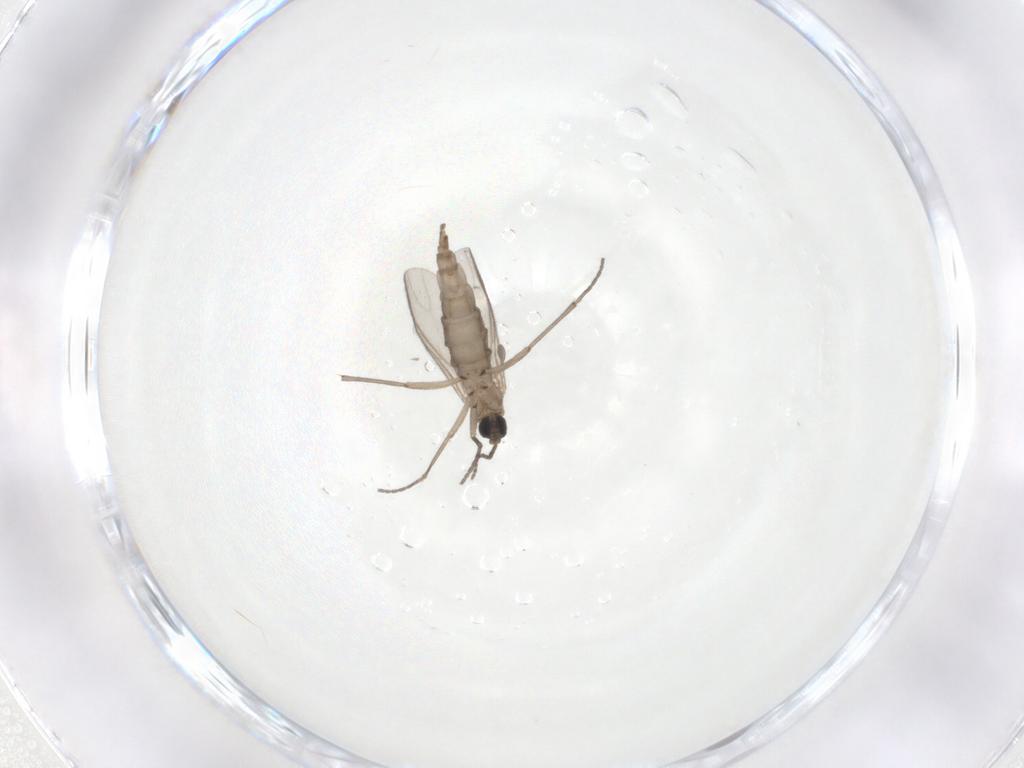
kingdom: Animalia
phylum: Arthropoda
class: Insecta
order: Diptera
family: Sciaridae
